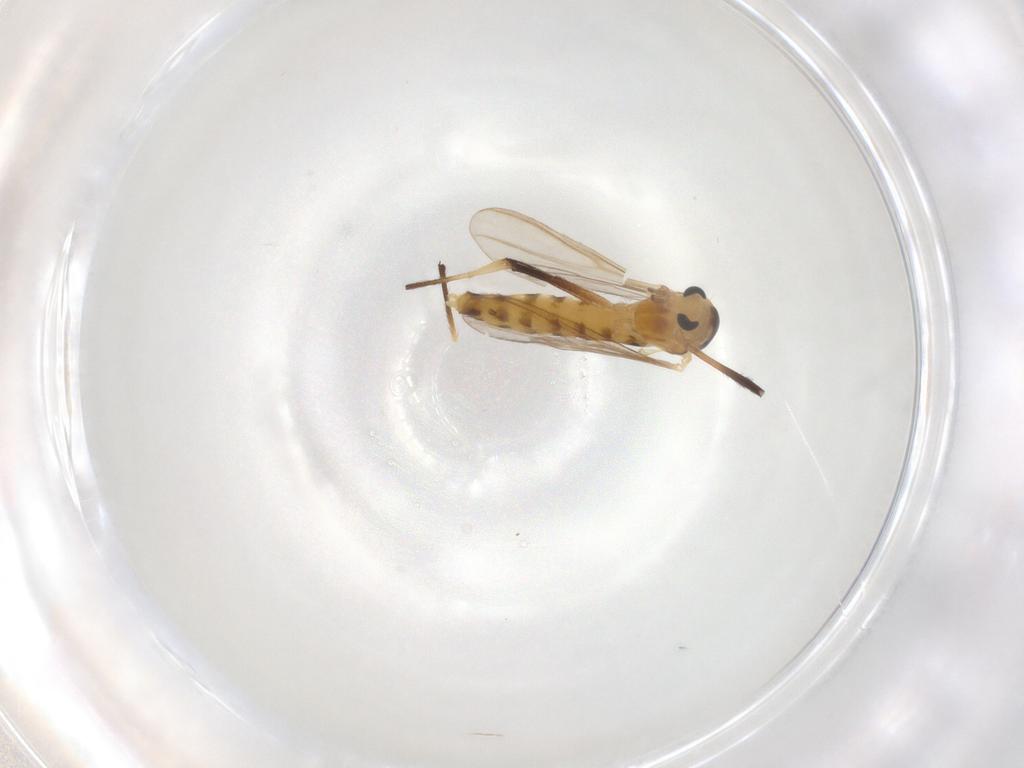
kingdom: Animalia
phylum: Arthropoda
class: Insecta
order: Diptera
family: Chironomidae
